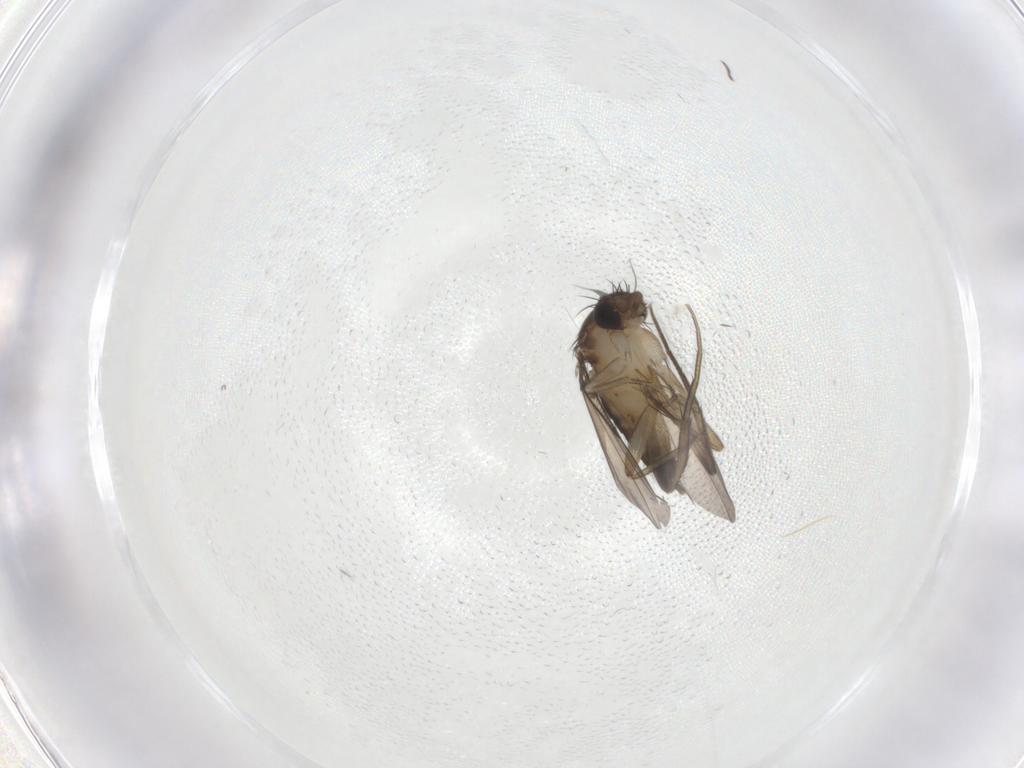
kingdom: Animalia
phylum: Arthropoda
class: Insecta
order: Diptera
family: Phoridae
